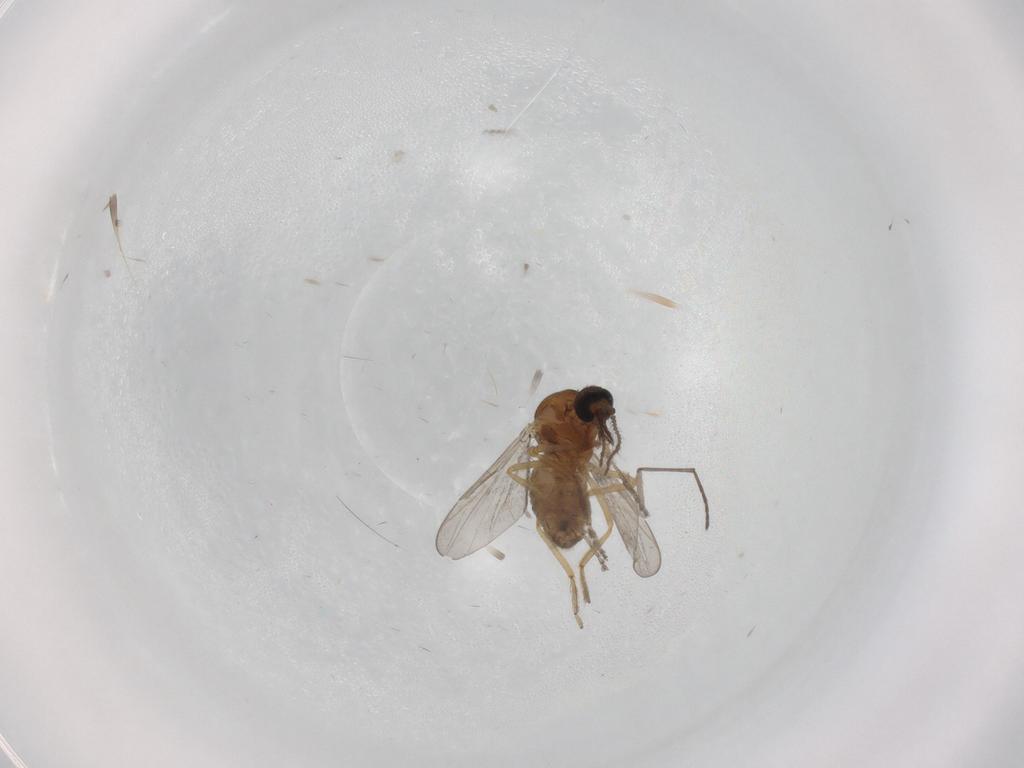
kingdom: Animalia
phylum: Arthropoda
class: Insecta
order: Diptera
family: Ceratopogonidae
